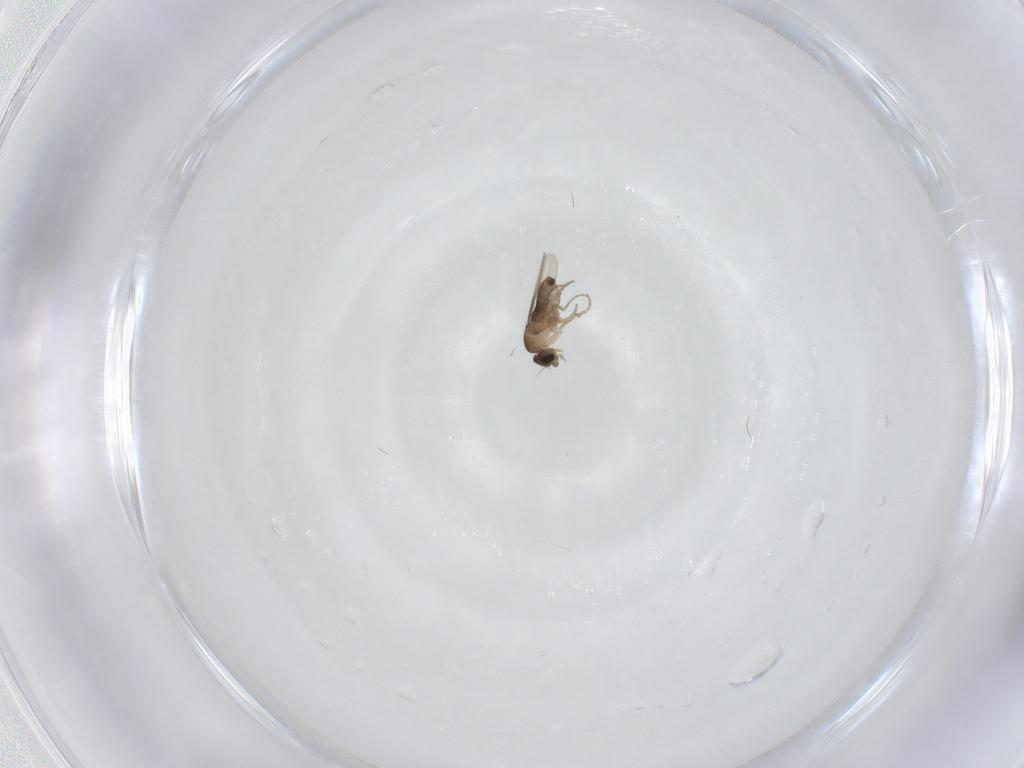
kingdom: Animalia
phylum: Arthropoda
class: Insecta
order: Diptera
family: Phoridae
